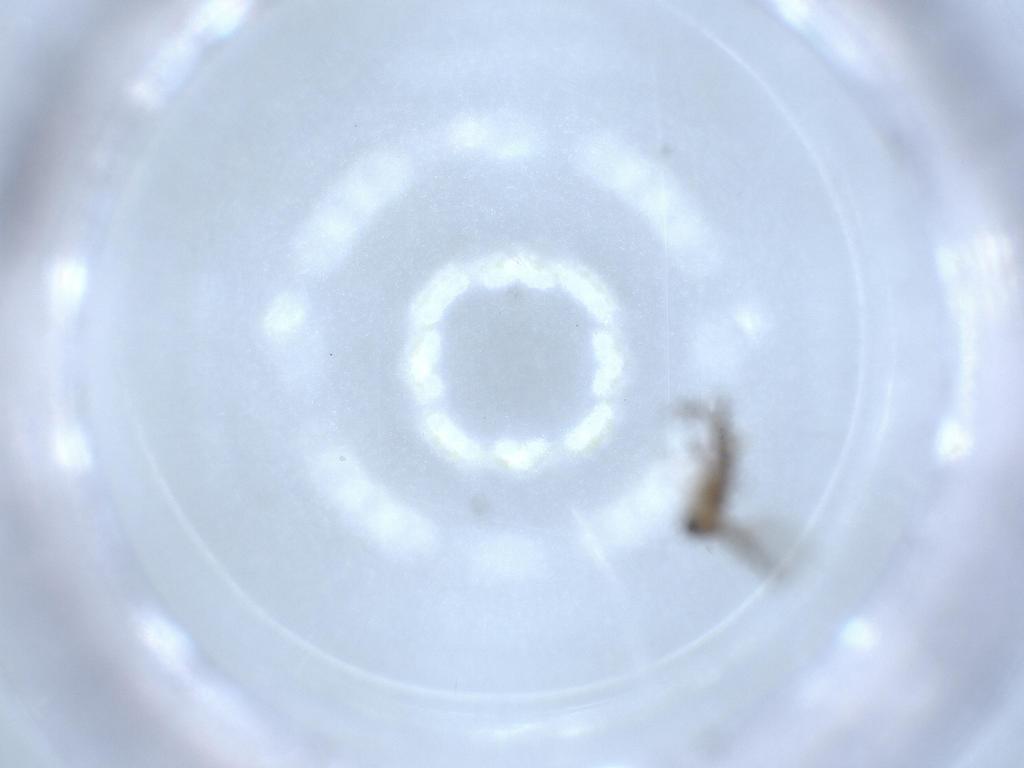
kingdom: Animalia
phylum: Arthropoda
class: Insecta
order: Diptera
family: Sciaridae
